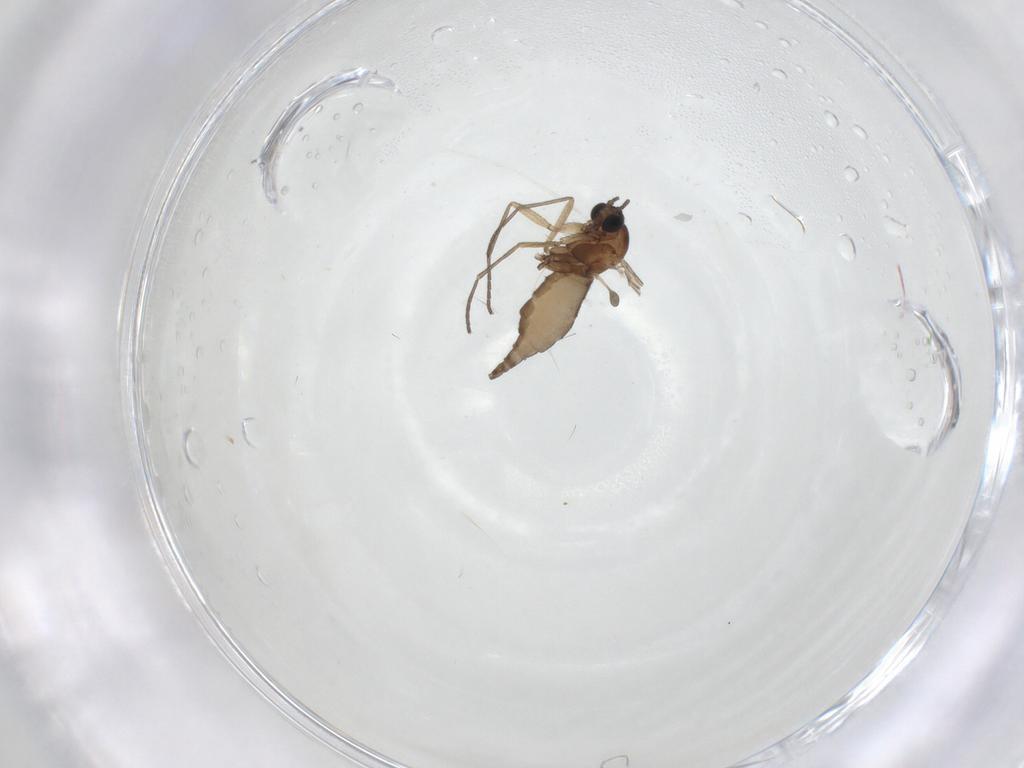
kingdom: Animalia
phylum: Arthropoda
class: Insecta
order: Diptera
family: Sciaridae
